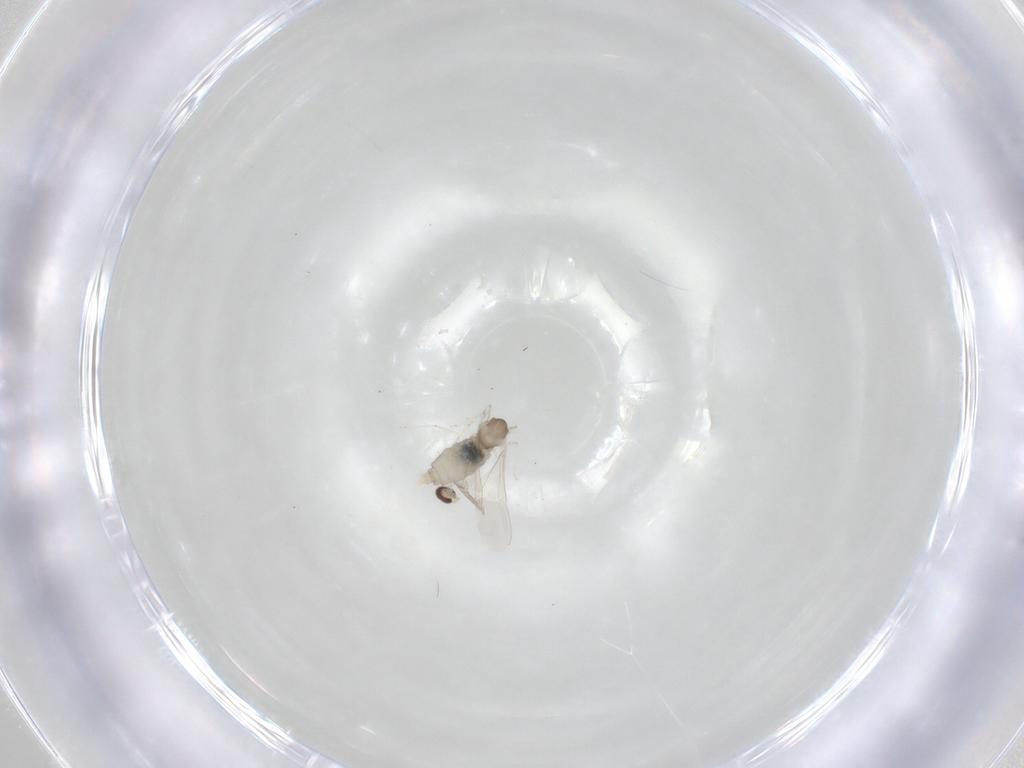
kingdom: Animalia
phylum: Arthropoda
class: Insecta
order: Diptera
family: Cecidomyiidae
